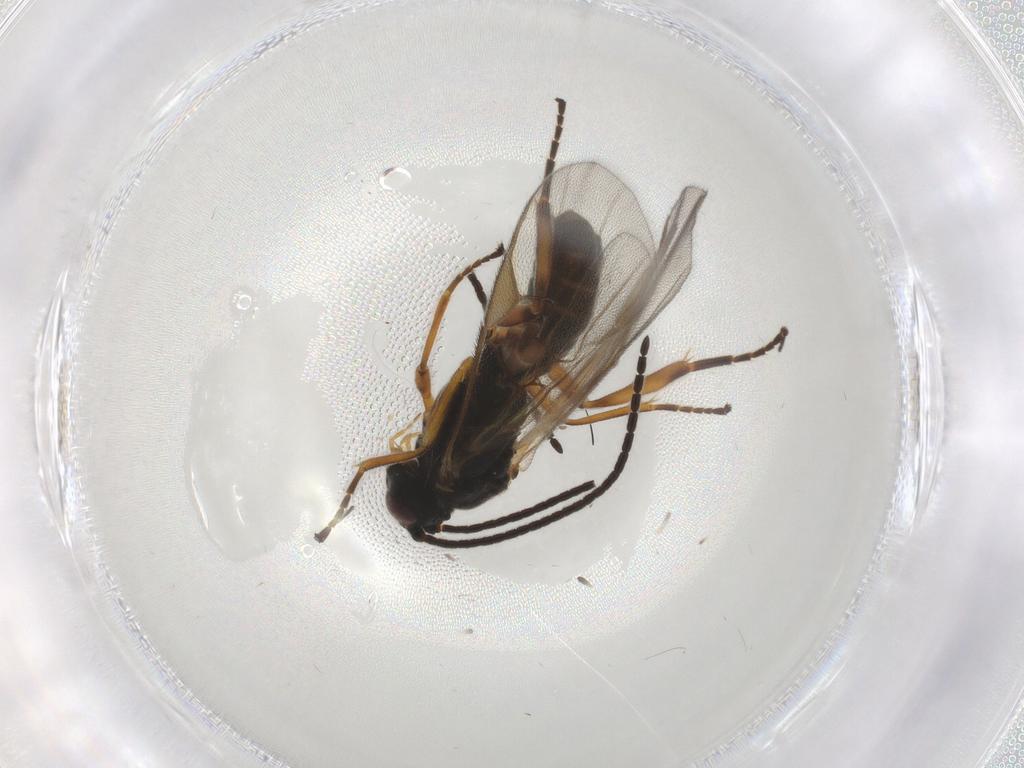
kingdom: Animalia
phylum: Arthropoda
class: Insecta
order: Hymenoptera
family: Braconidae
